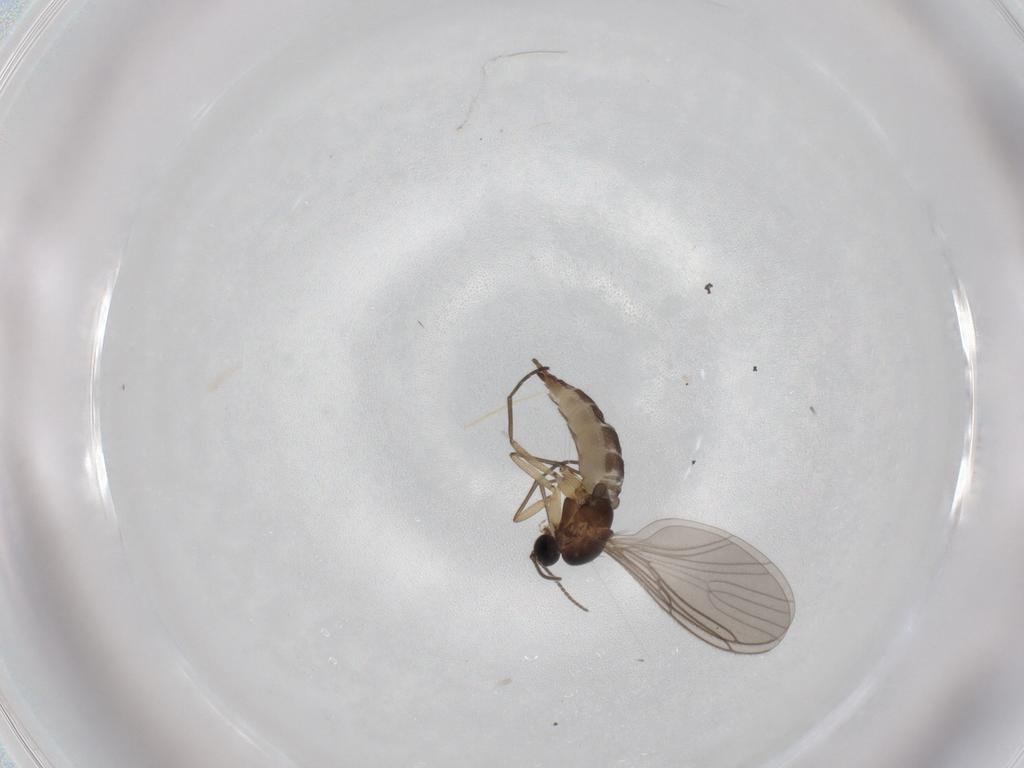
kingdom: Animalia
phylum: Arthropoda
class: Insecta
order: Diptera
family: Sciaridae
